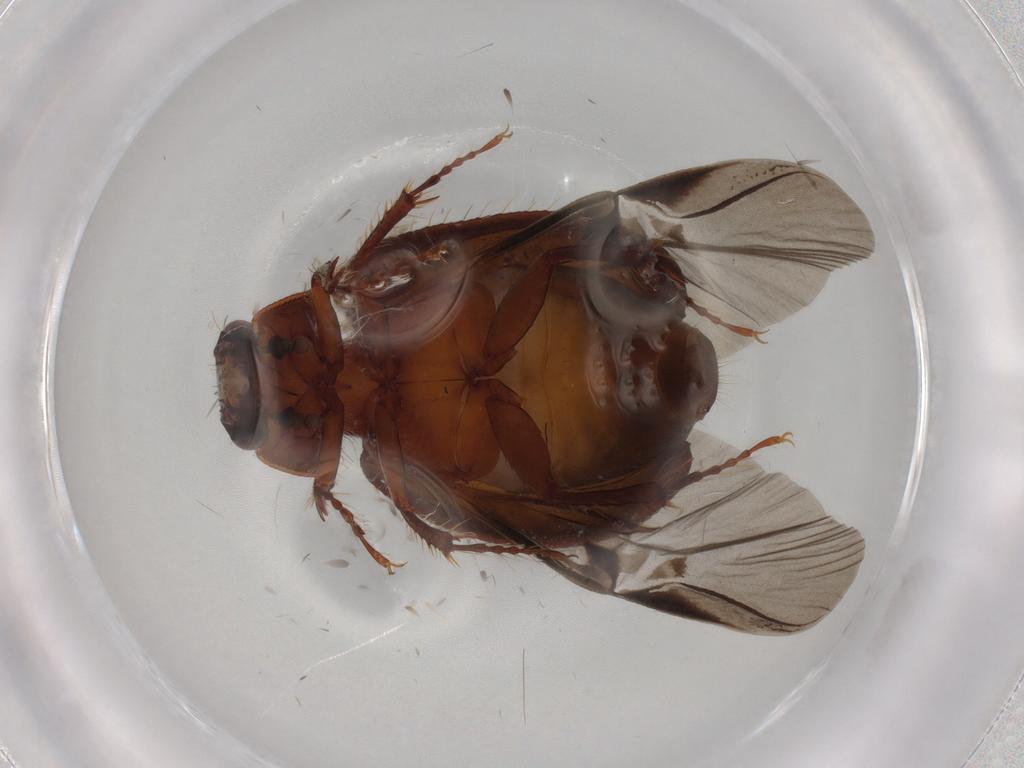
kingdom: Animalia
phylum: Arthropoda
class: Insecta
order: Coleoptera
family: Hybosoridae
